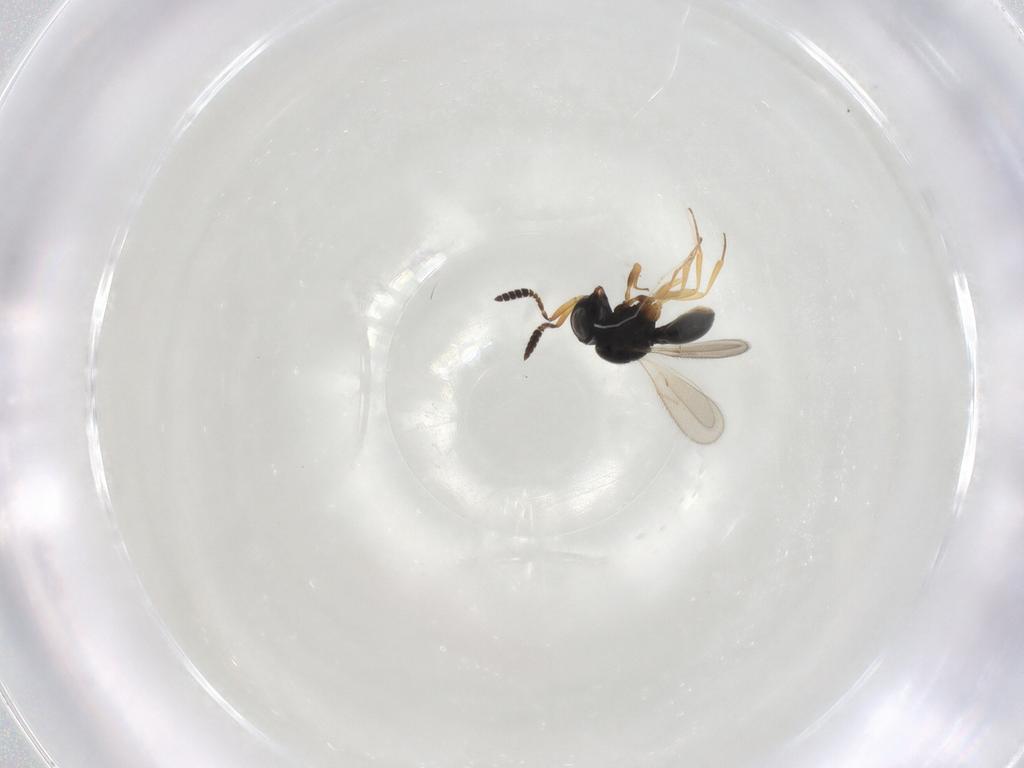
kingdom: Animalia
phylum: Arthropoda
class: Insecta
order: Hymenoptera
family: Scelionidae
